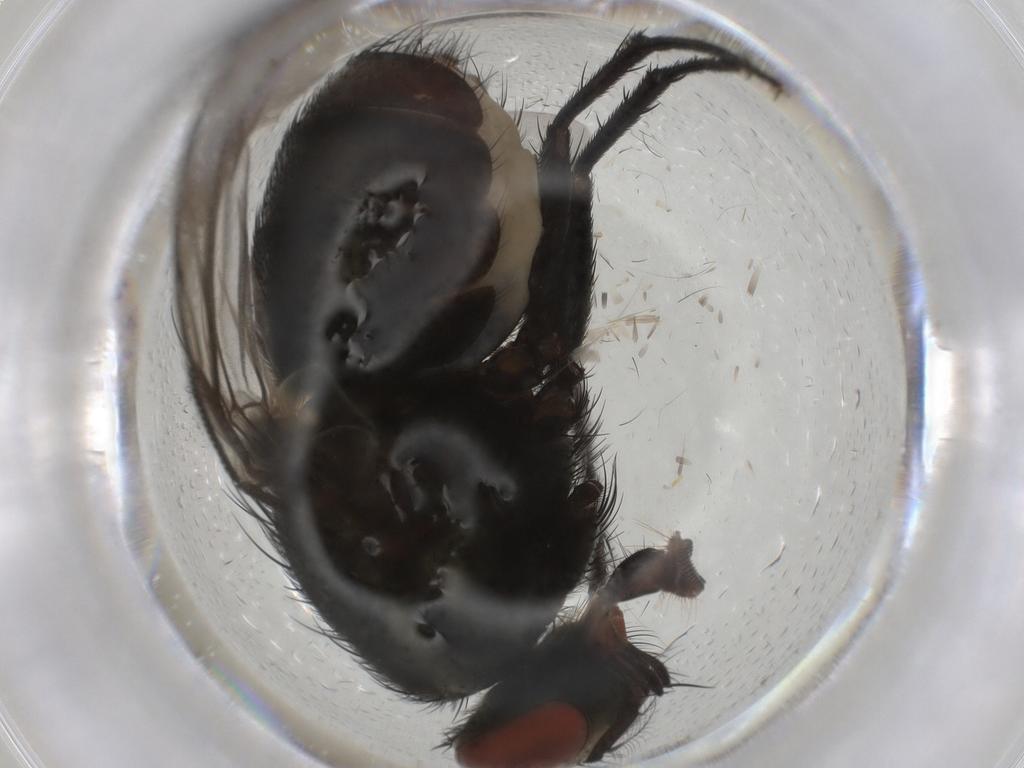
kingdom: Animalia
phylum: Arthropoda
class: Insecta
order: Diptera
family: Sarcophagidae
